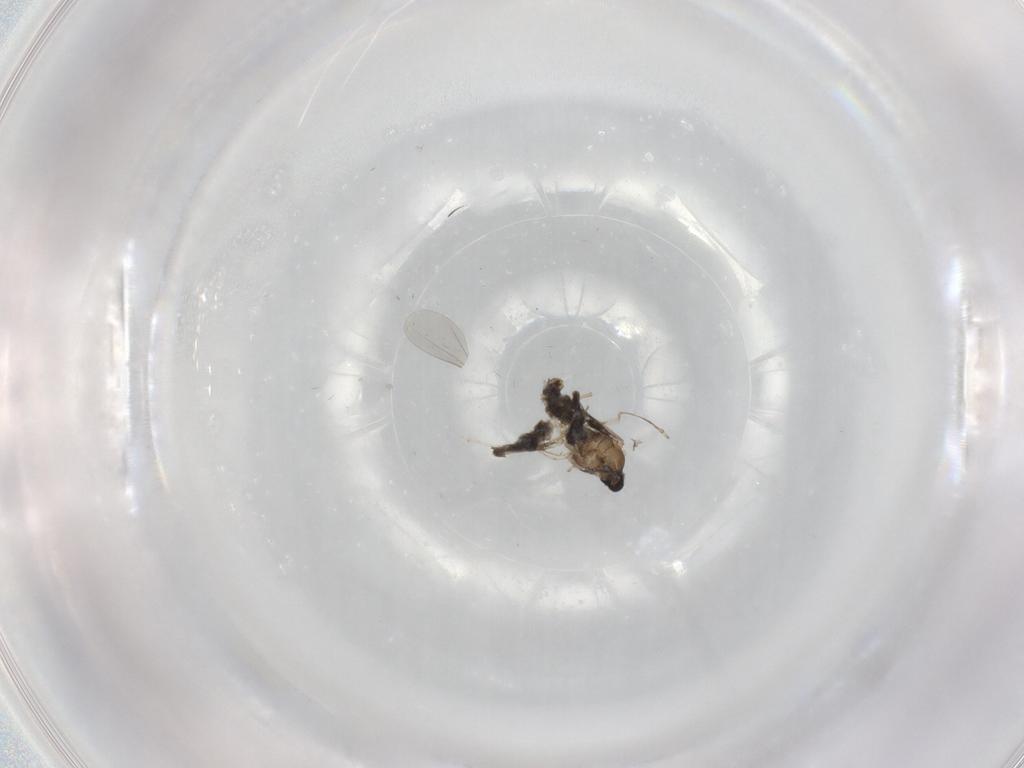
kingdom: Animalia
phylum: Arthropoda
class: Insecta
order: Diptera
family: Cecidomyiidae
